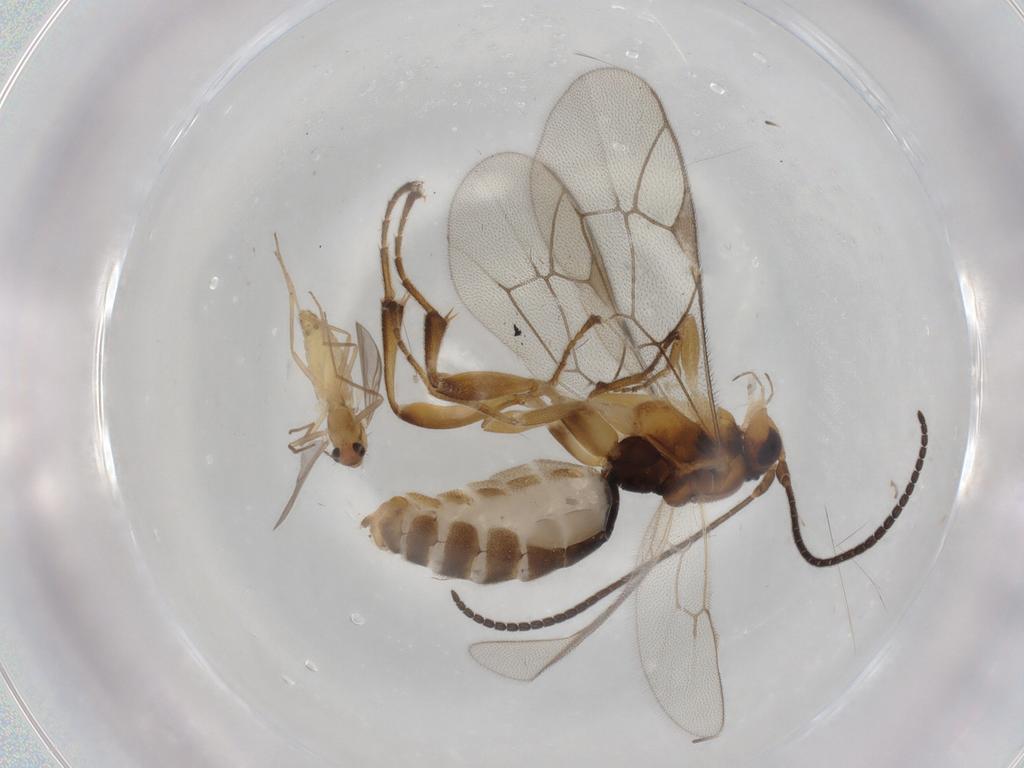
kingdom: Animalia
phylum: Arthropoda
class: Insecta
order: Diptera
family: Chironomidae
